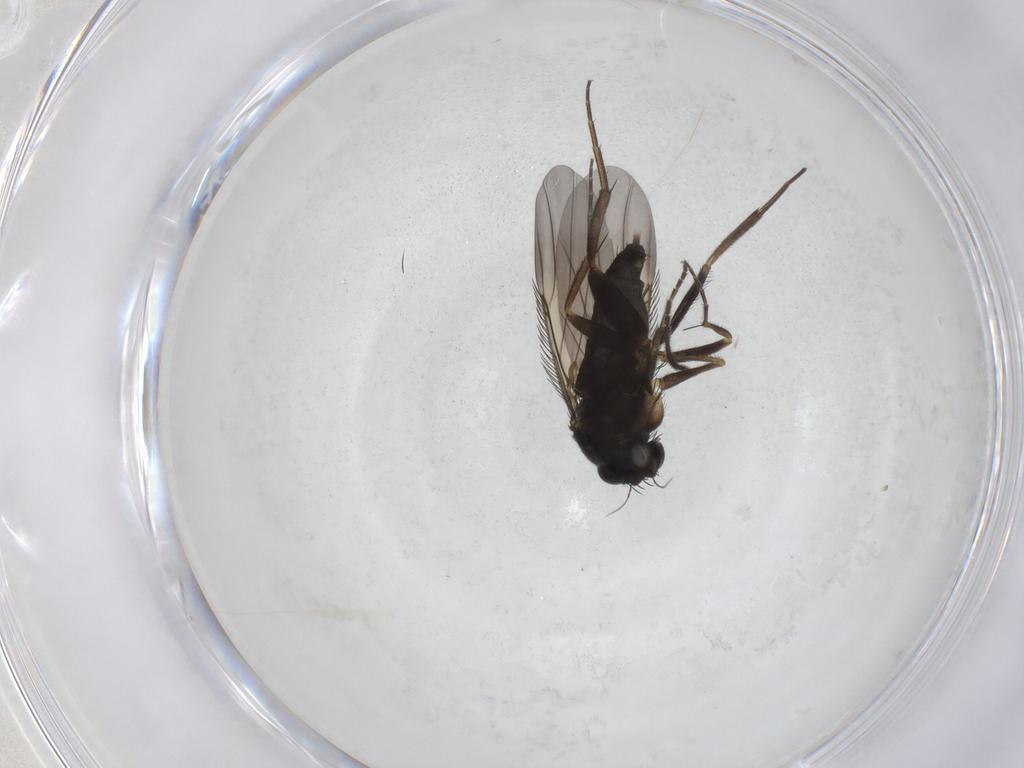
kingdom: Animalia
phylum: Arthropoda
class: Insecta
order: Diptera
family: Phoridae
